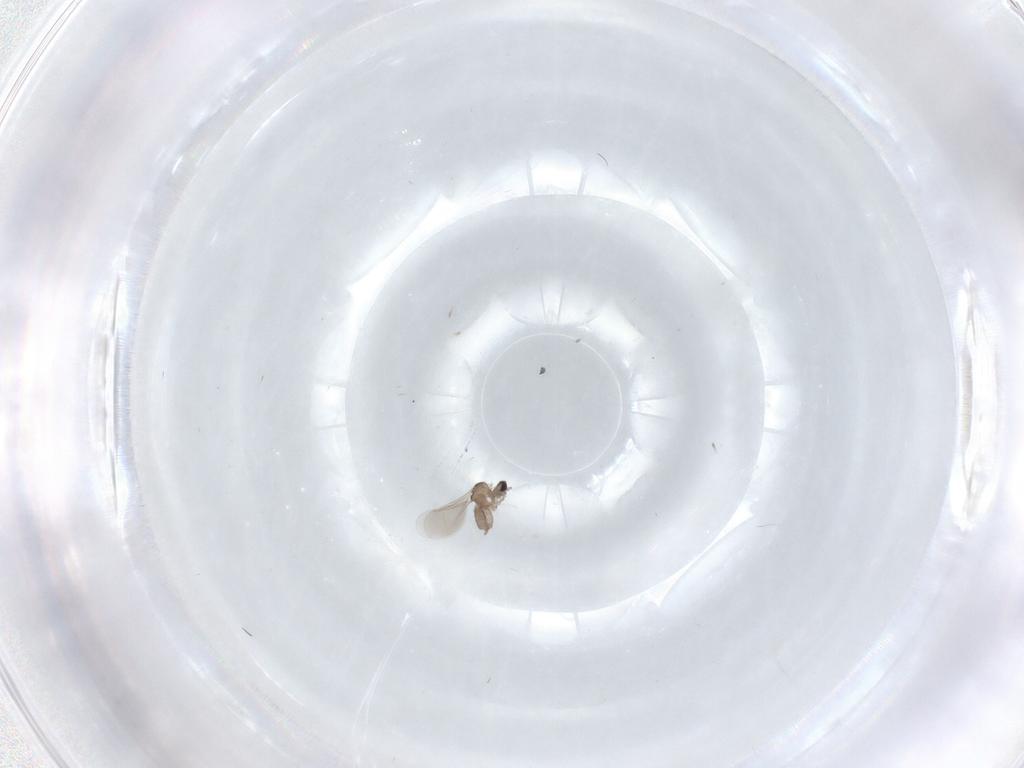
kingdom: Animalia
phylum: Arthropoda
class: Insecta
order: Diptera
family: Cecidomyiidae
